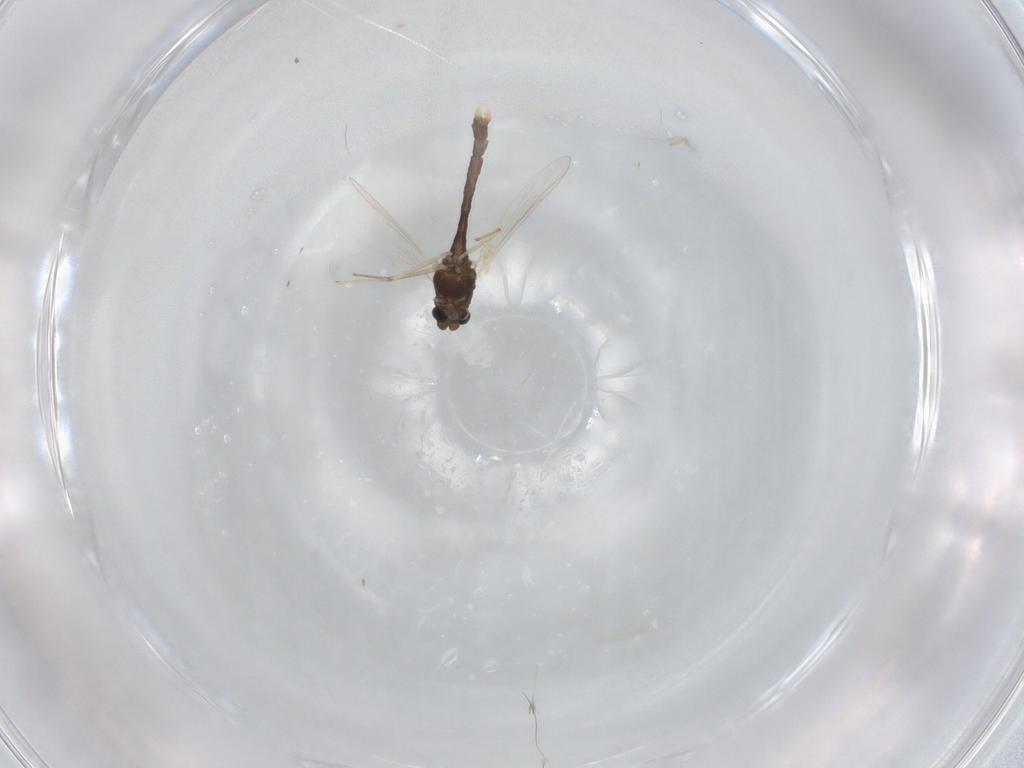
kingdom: Animalia
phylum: Arthropoda
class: Insecta
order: Diptera
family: Chironomidae
